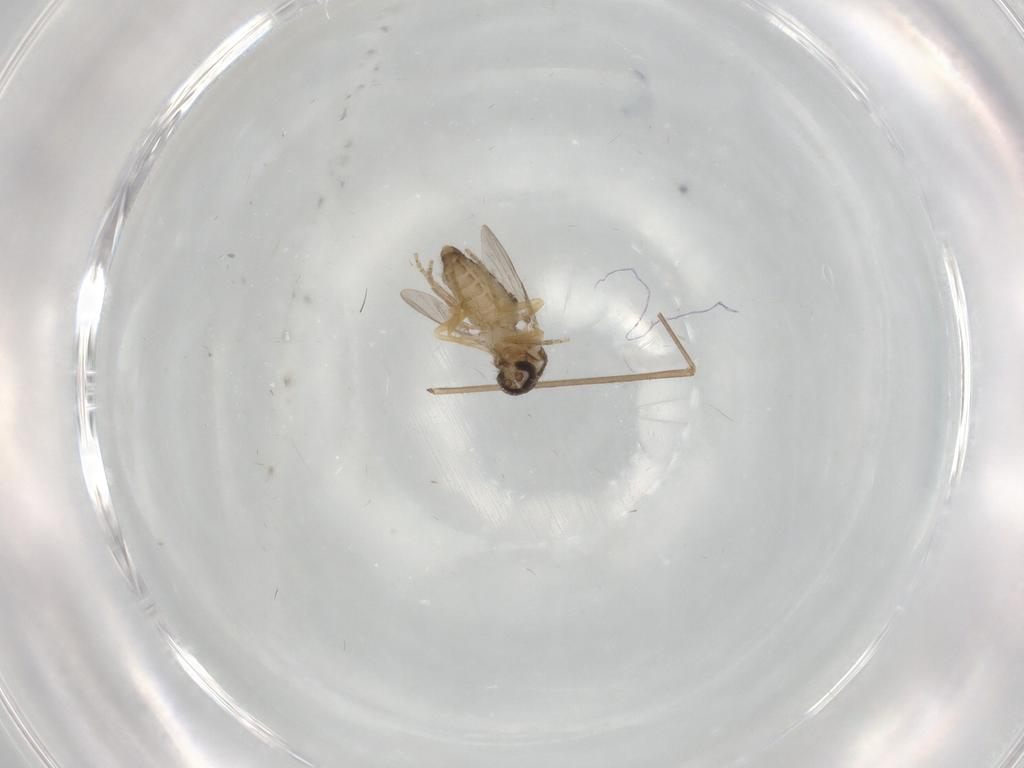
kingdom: Animalia
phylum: Arthropoda
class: Insecta
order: Diptera
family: Ceratopogonidae
